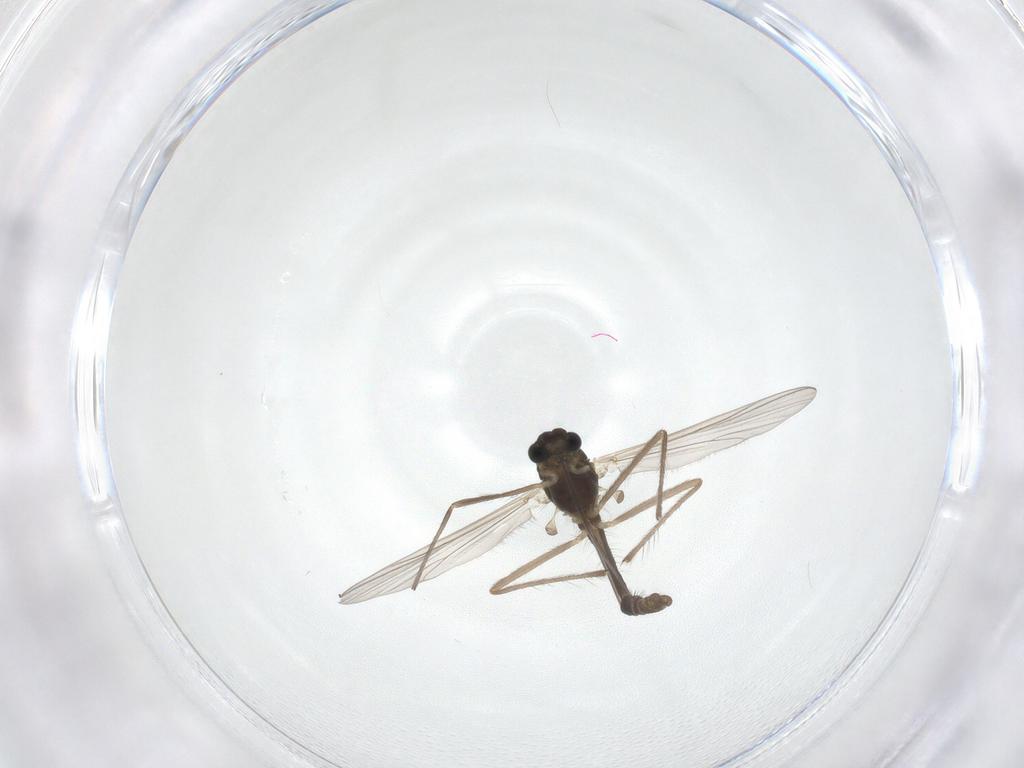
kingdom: Animalia
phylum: Arthropoda
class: Insecta
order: Diptera
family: Chironomidae
